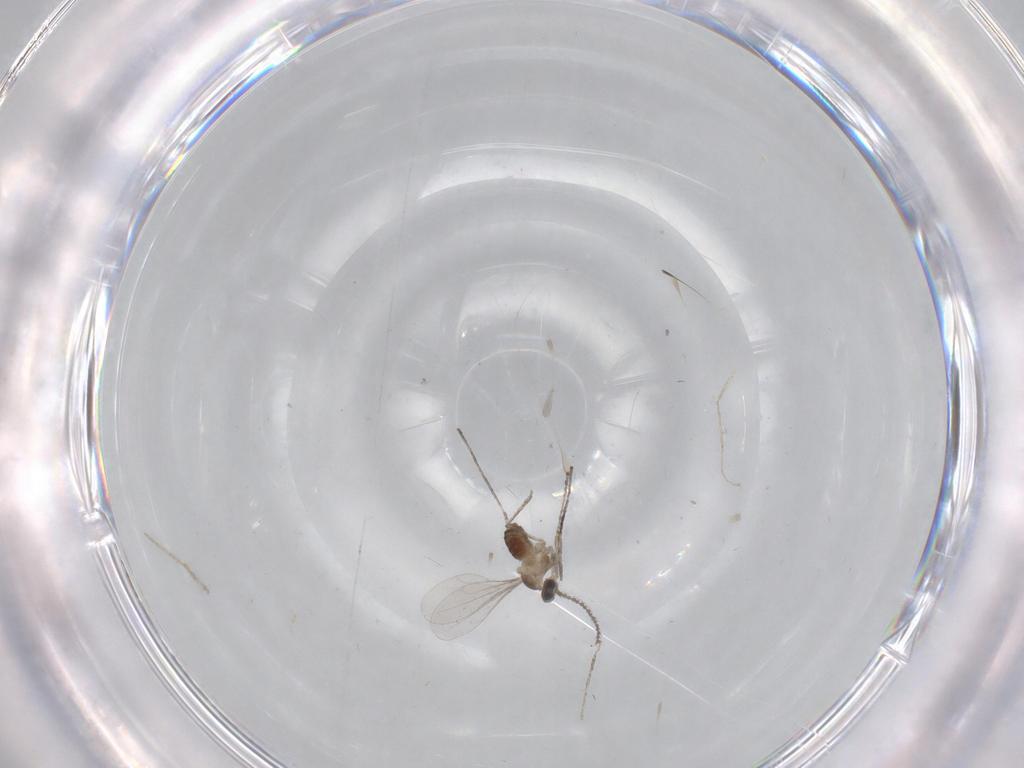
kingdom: Animalia
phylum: Arthropoda
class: Insecta
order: Diptera
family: Cecidomyiidae
